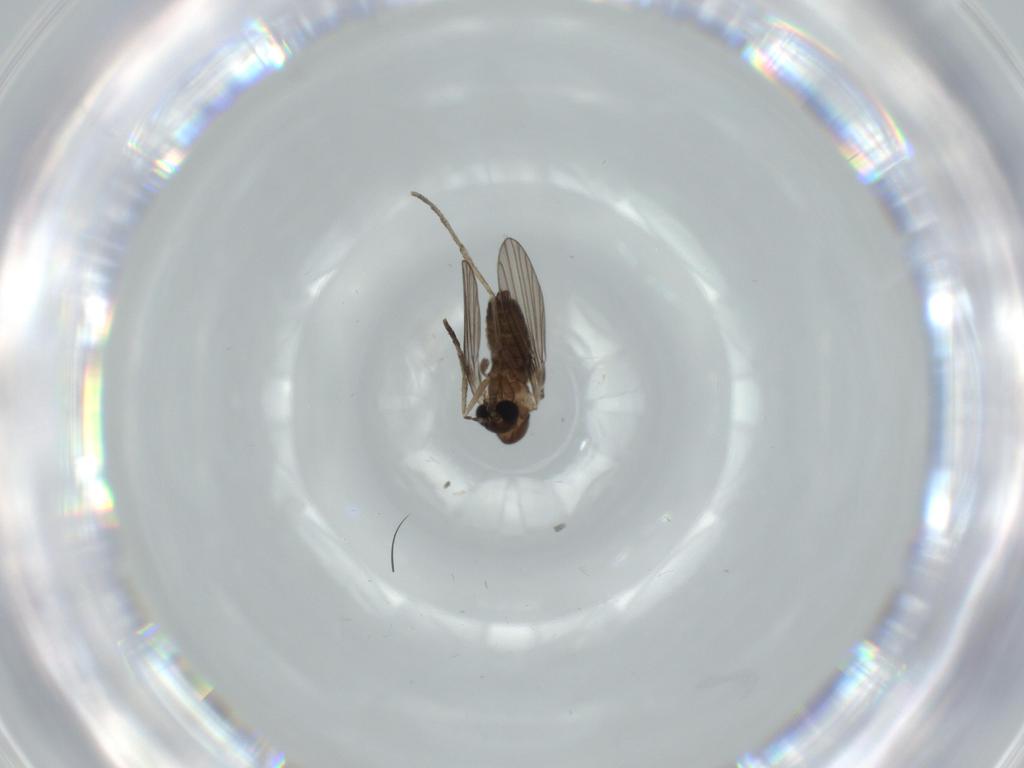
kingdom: Animalia
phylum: Arthropoda
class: Insecta
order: Diptera
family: Psychodidae
